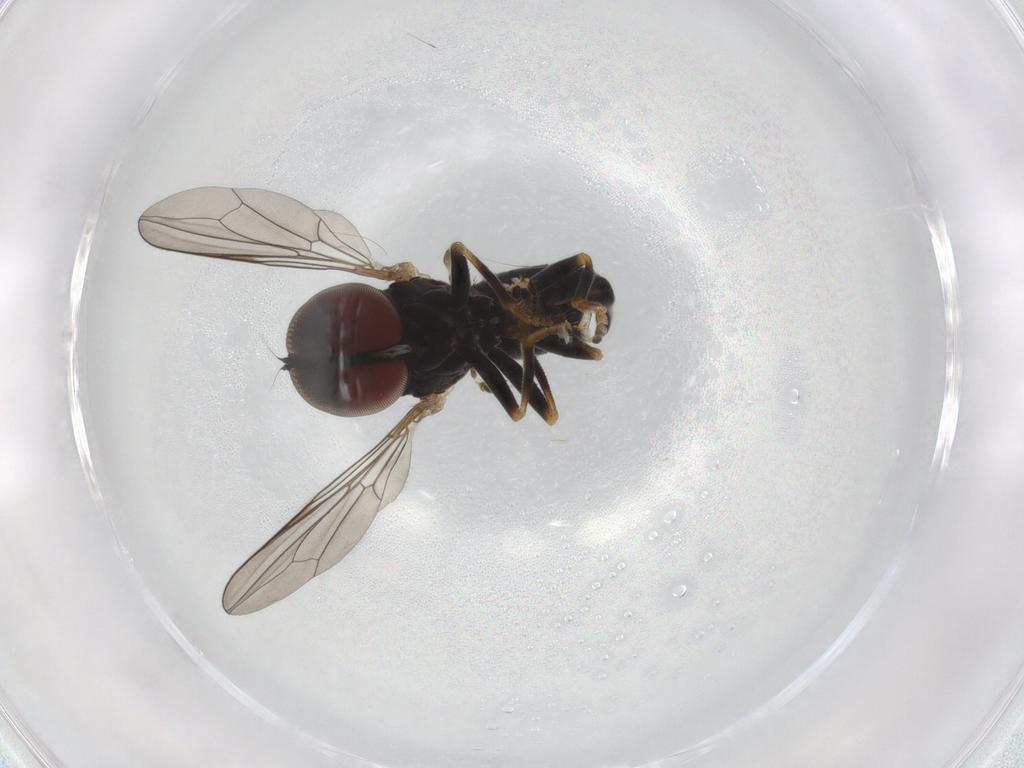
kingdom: Animalia
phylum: Arthropoda
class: Insecta
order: Diptera
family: Pipunculidae
